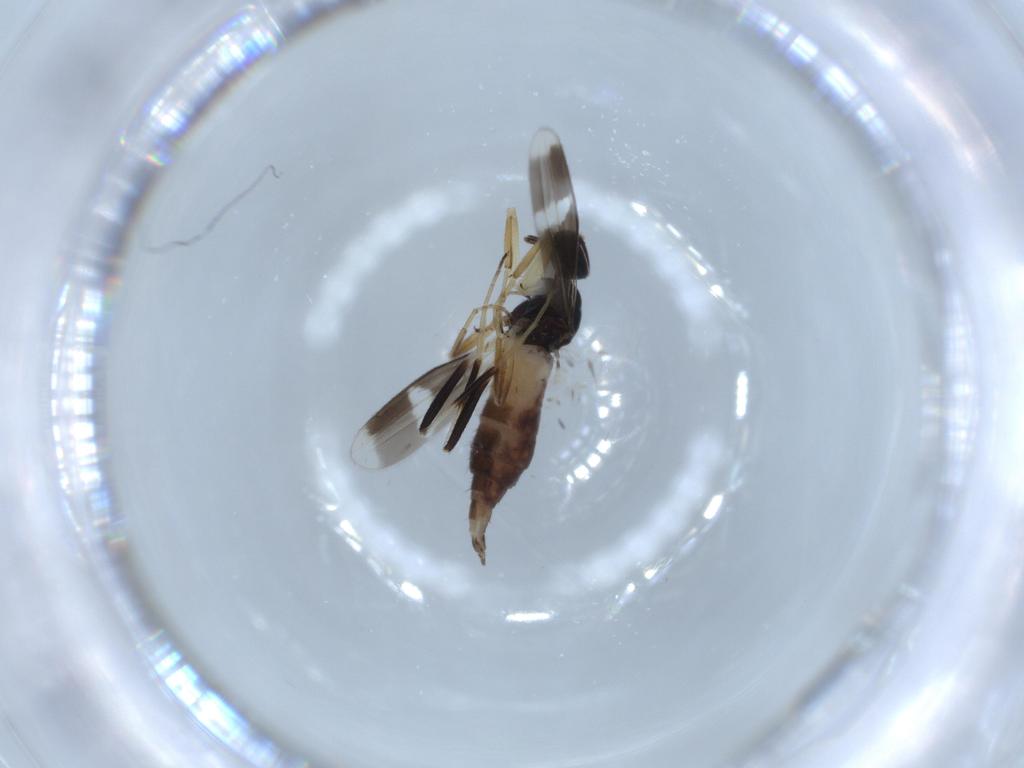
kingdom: Animalia
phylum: Arthropoda
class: Insecta
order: Diptera
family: Hybotidae
